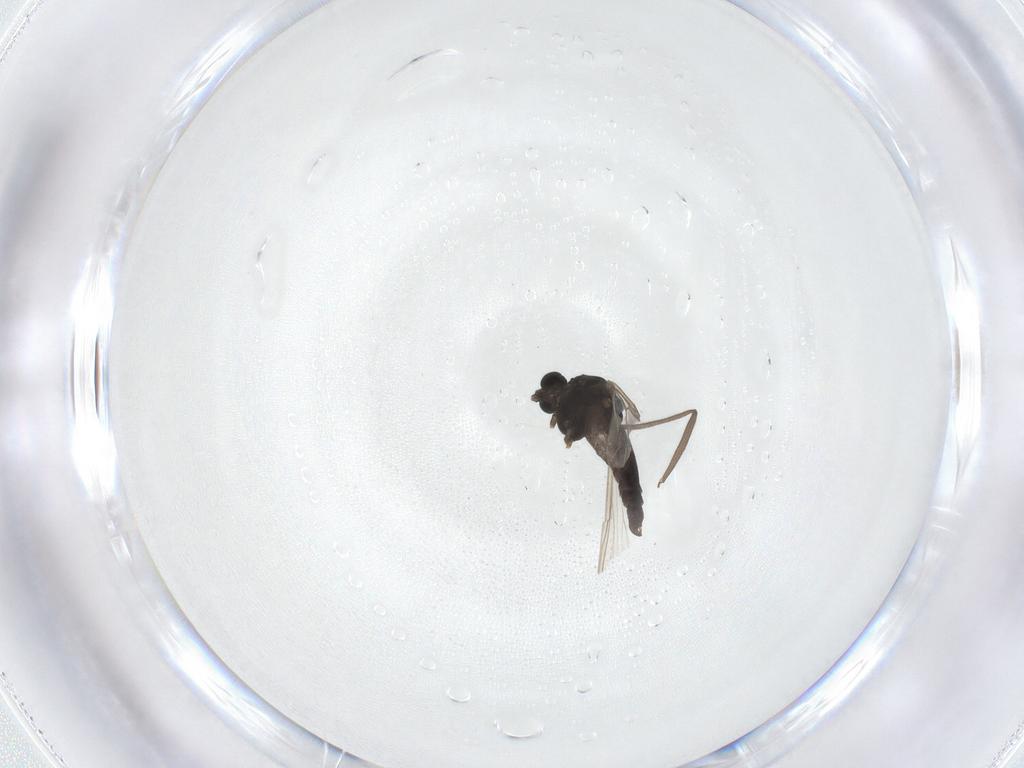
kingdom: Animalia
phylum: Arthropoda
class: Insecta
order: Diptera
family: Chironomidae
